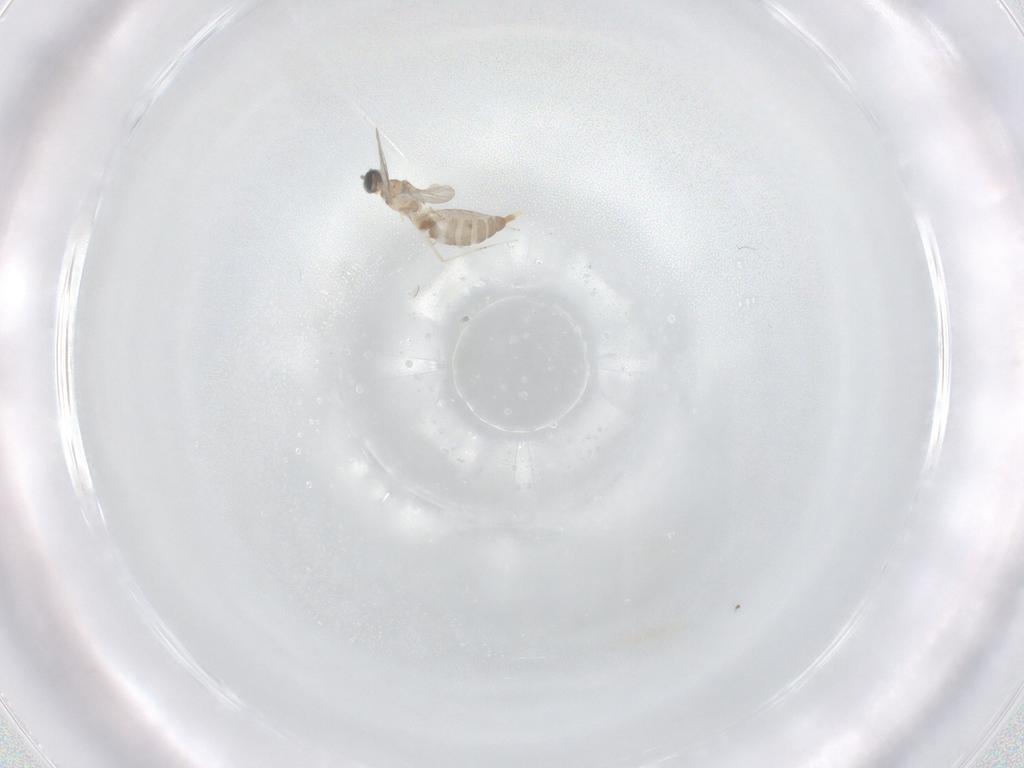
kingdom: Animalia
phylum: Arthropoda
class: Insecta
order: Diptera
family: Cecidomyiidae
